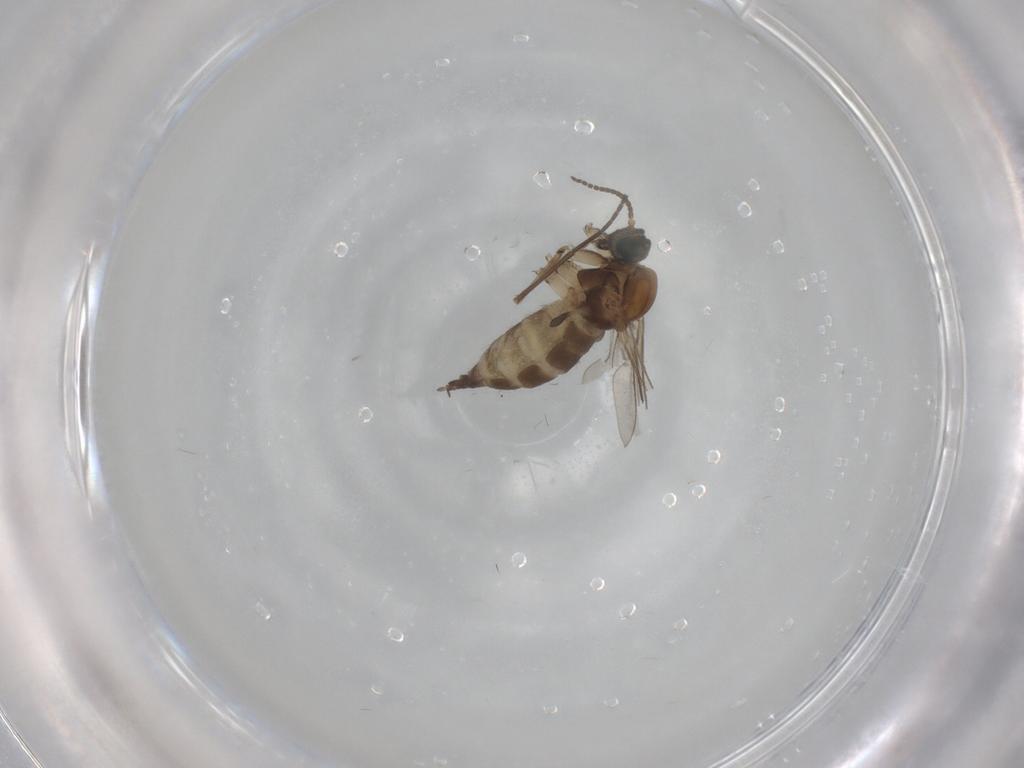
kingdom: Animalia
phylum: Arthropoda
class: Insecta
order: Diptera
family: Sciaridae
